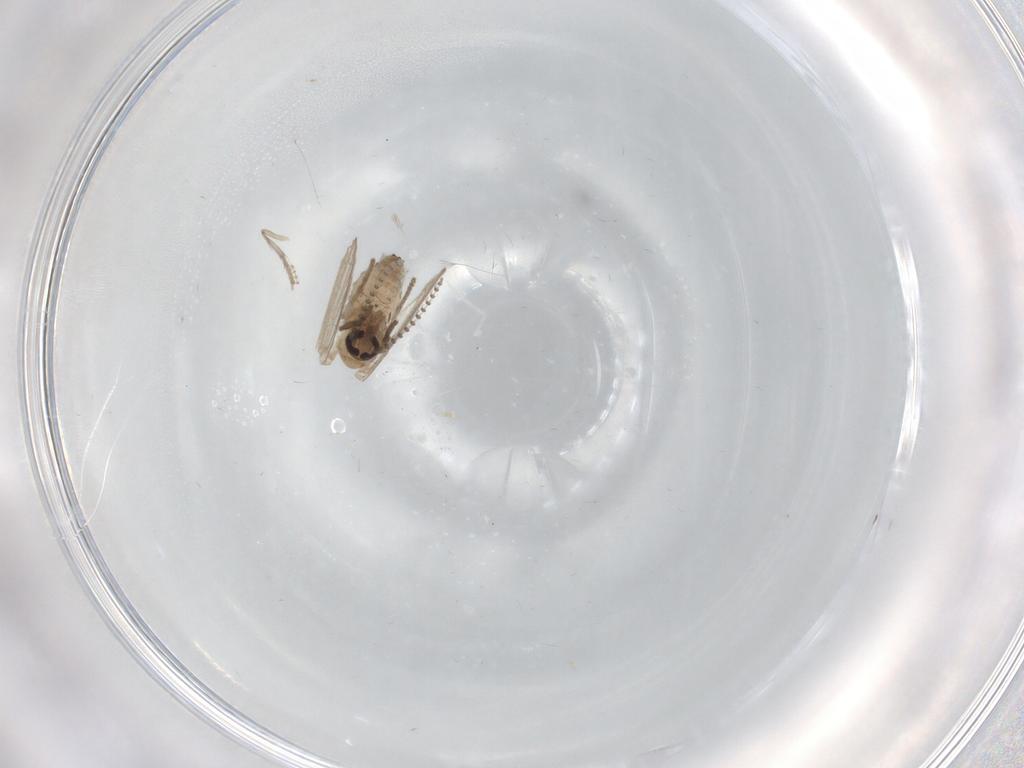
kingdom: Animalia
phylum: Arthropoda
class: Insecta
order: Diptera
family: Psychodidae
